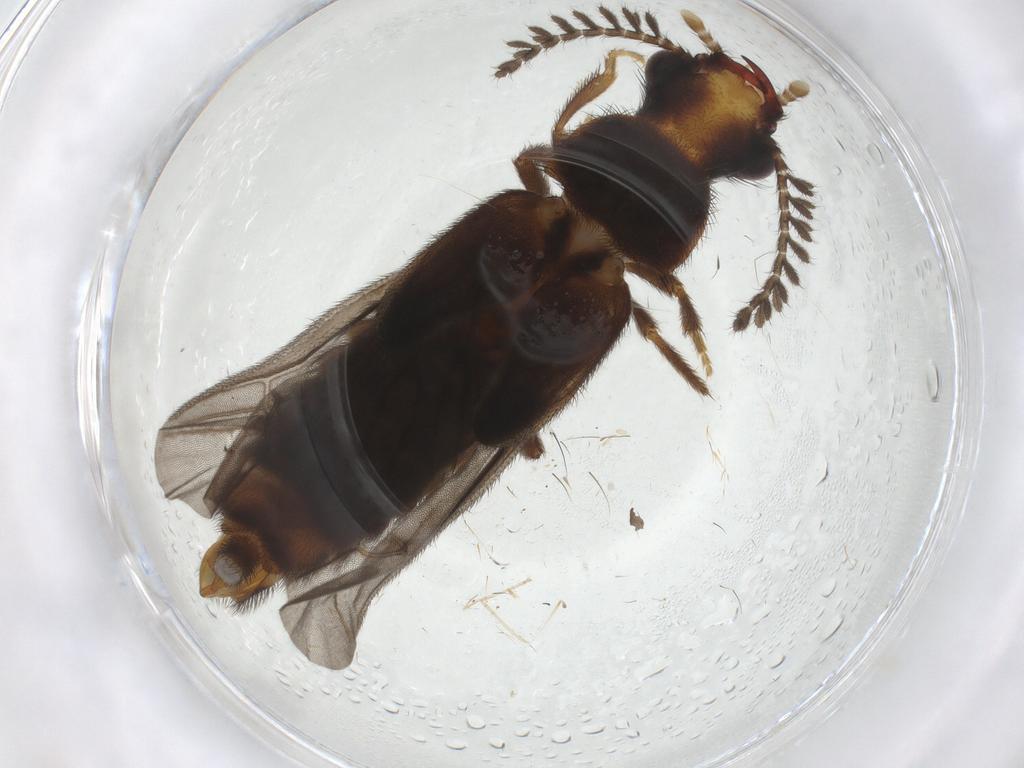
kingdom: Animalia
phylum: Arthropoda
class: Insecta
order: Coleoptera
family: Phengodidae
